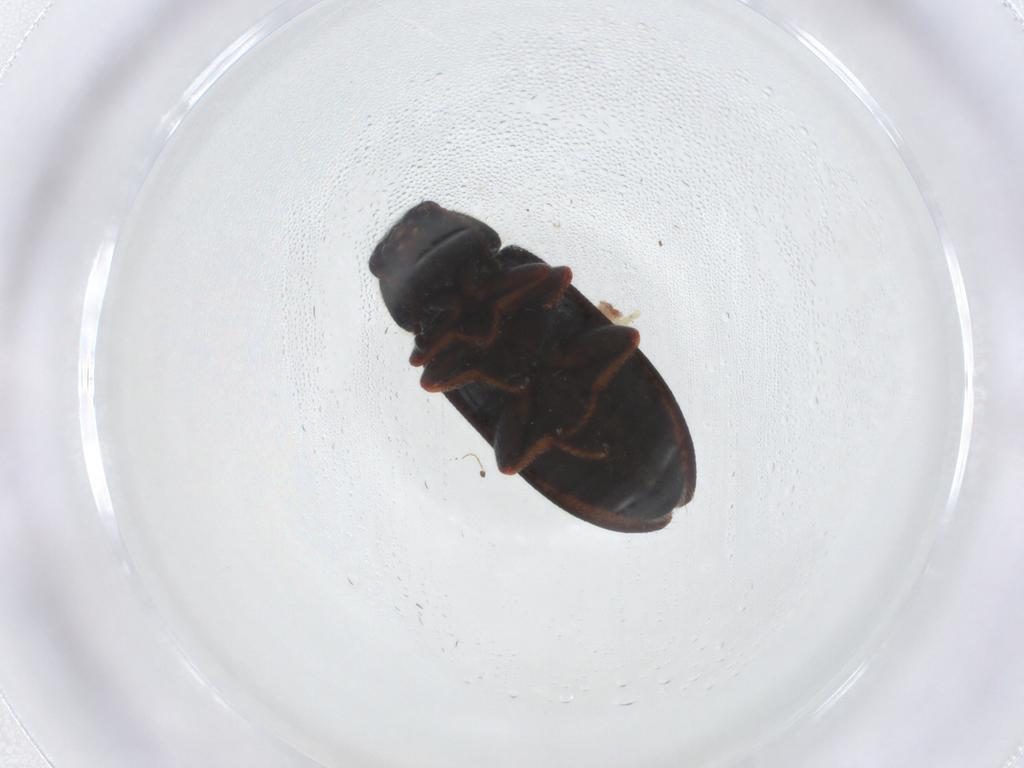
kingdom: Animalia
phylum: Arthropoda
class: Insecta
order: Coleoptera
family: Melyridae
